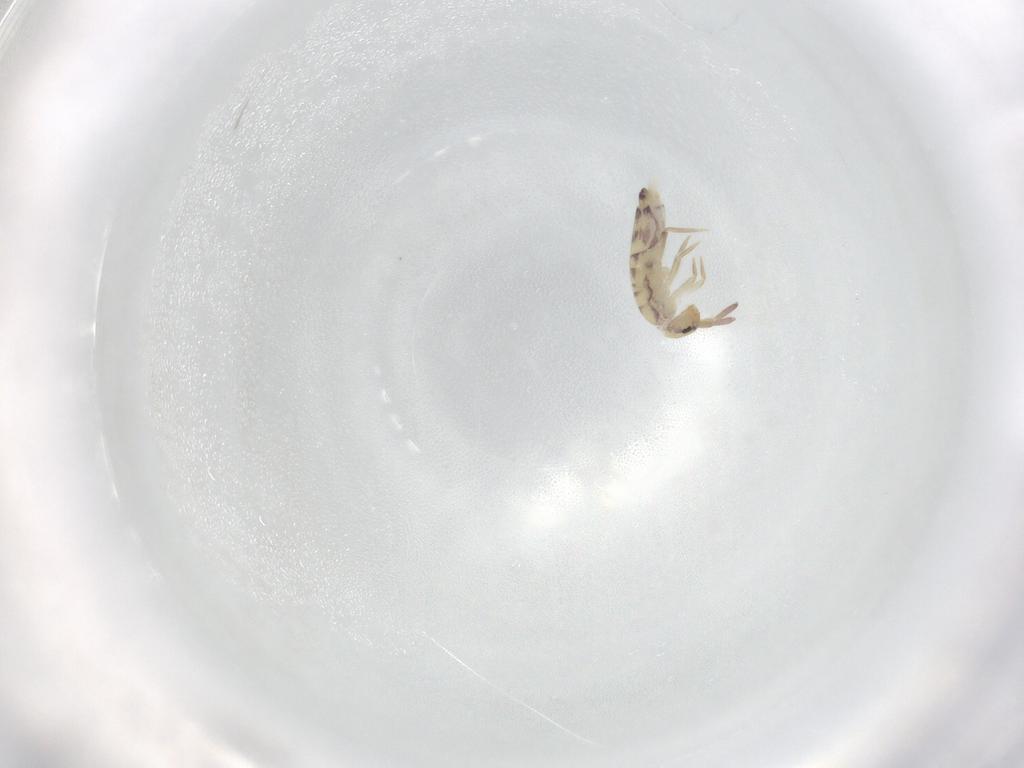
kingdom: Animalia
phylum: Arthropoda
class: Collembola
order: Entomobryomorpha
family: Entomobryidae
